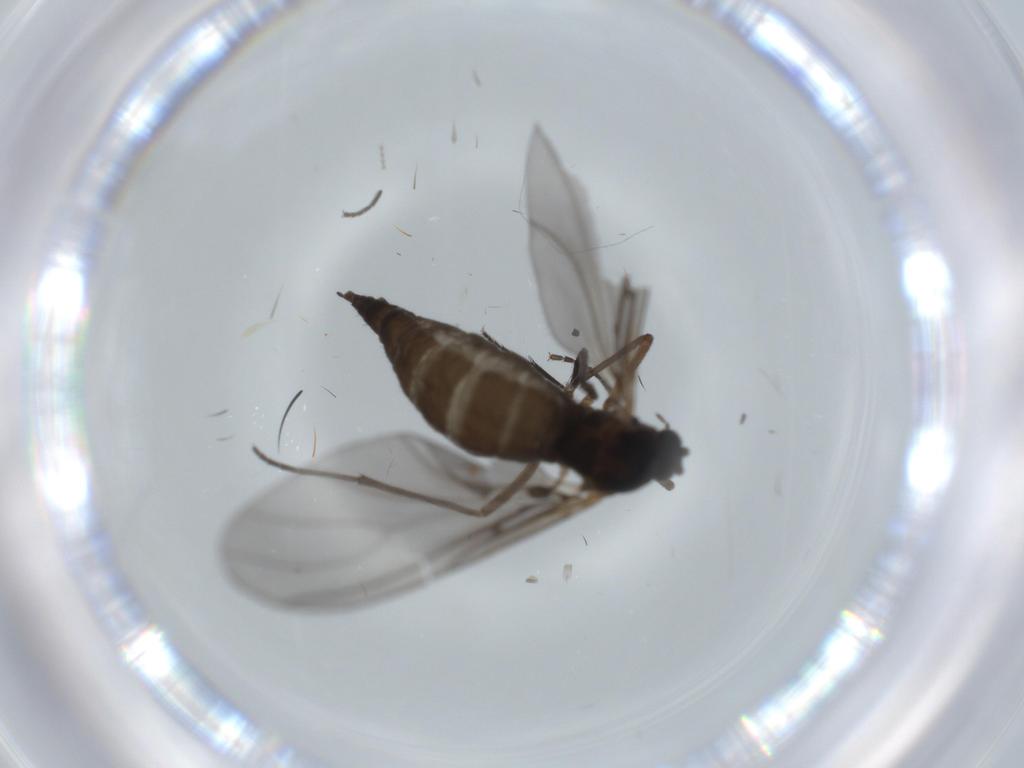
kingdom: Animalia
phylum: Arthropoda
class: Insecta
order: Diptera
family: Sciaridae
